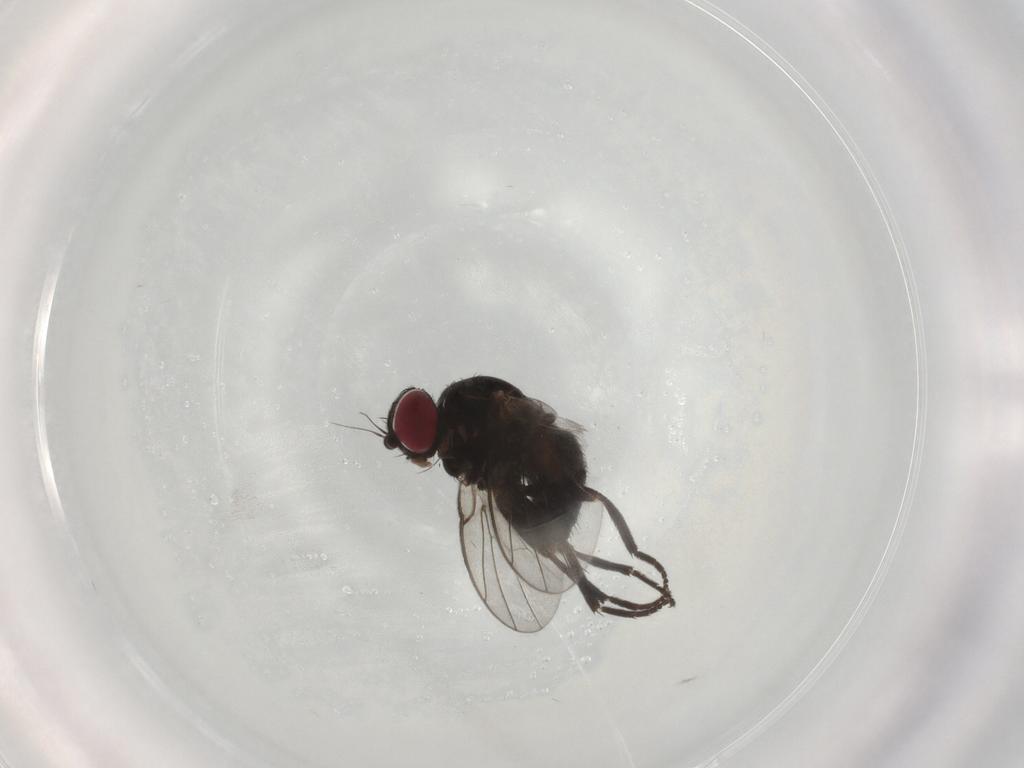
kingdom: Animalia
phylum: Arthropoda
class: Insecta
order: Diptera
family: Agromyzidae
